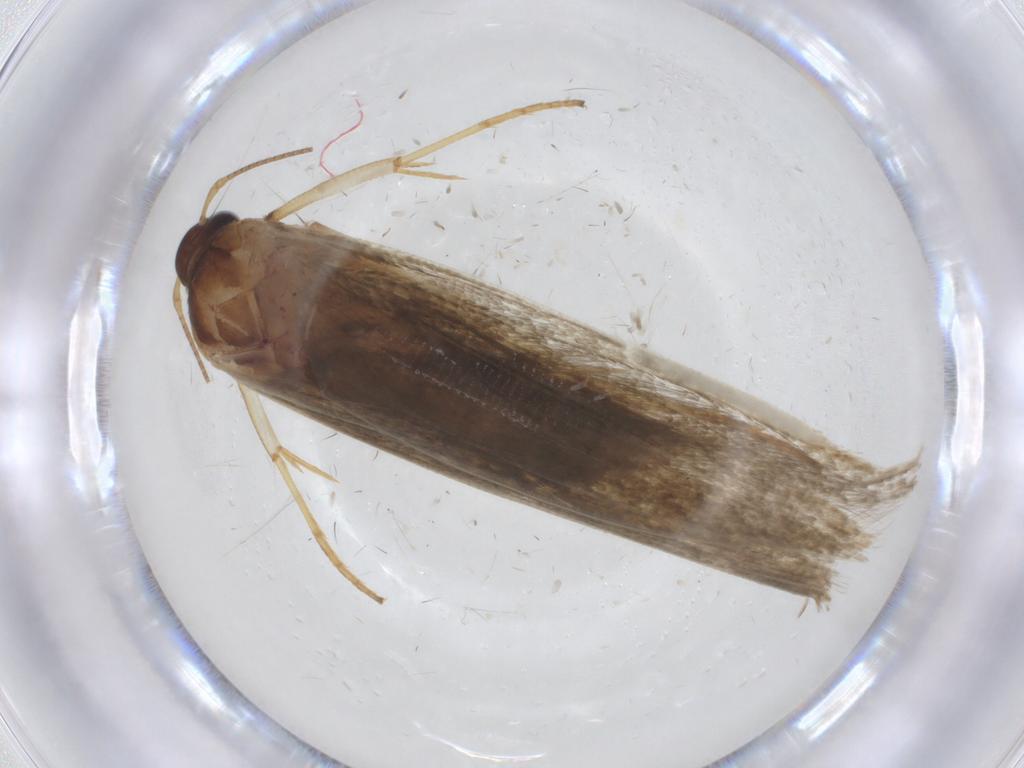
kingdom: Animalia
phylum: Arthropoda
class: Insecta
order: Lepidoptera
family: Blastobasidae
